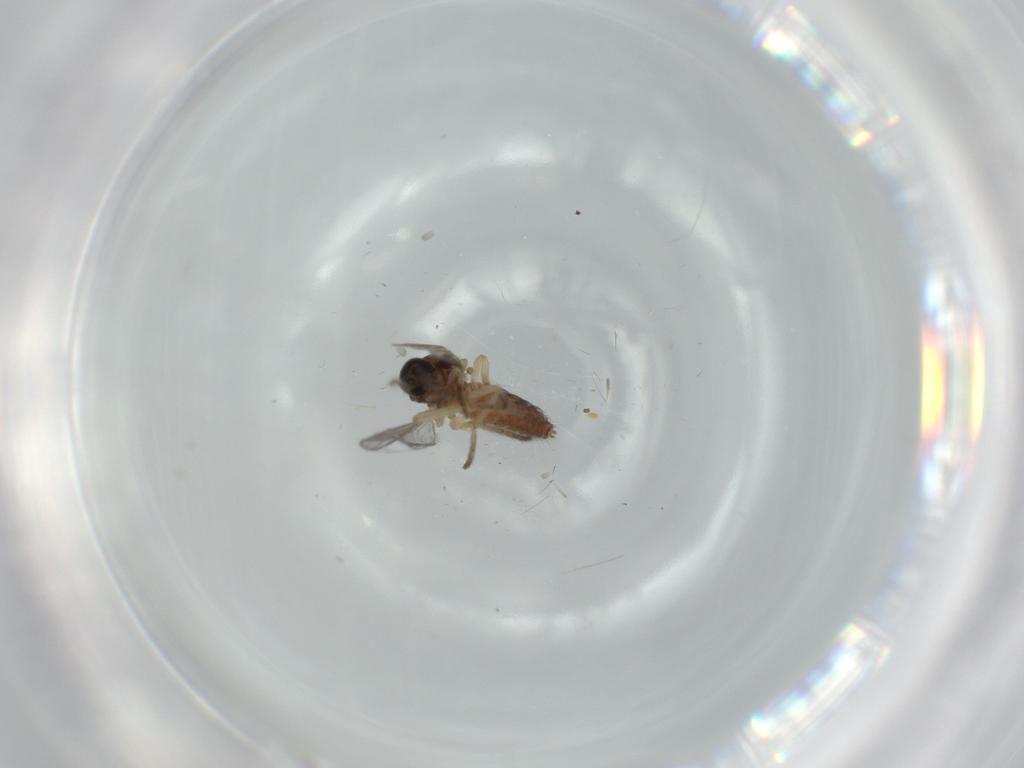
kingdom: Animalia
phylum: Arthropoda
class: Insecta
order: Diptera
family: Ceratopogonidae
